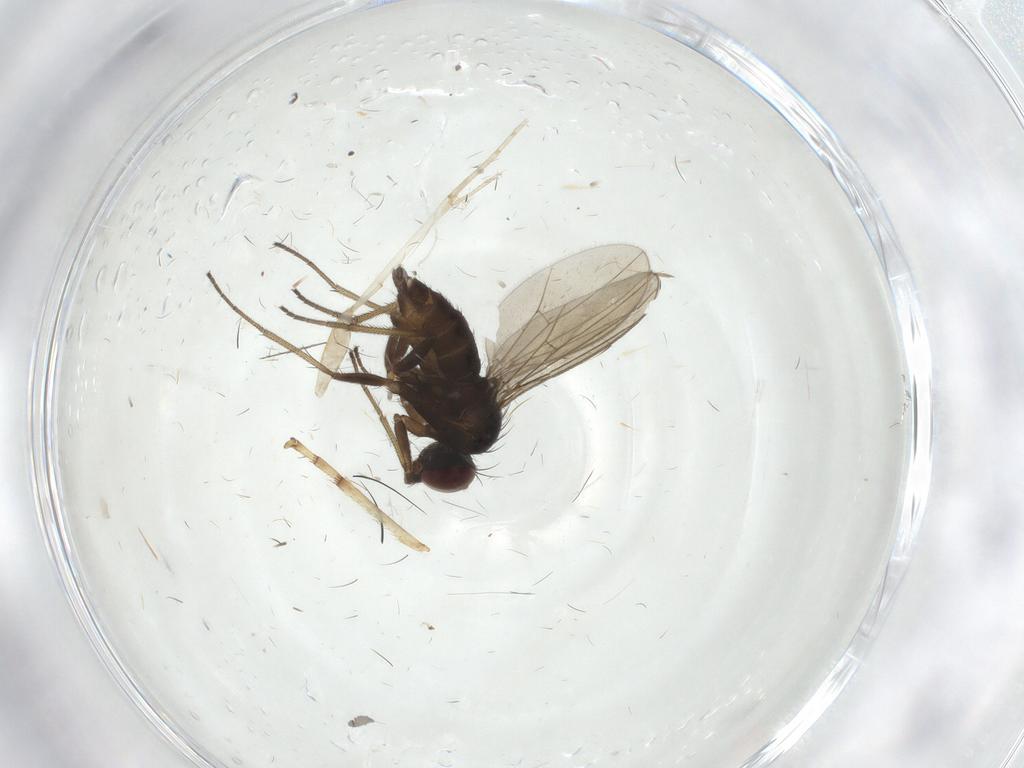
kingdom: Animalia
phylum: Arthropoda
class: Insecta
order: Diptera
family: Dolichopodidae
